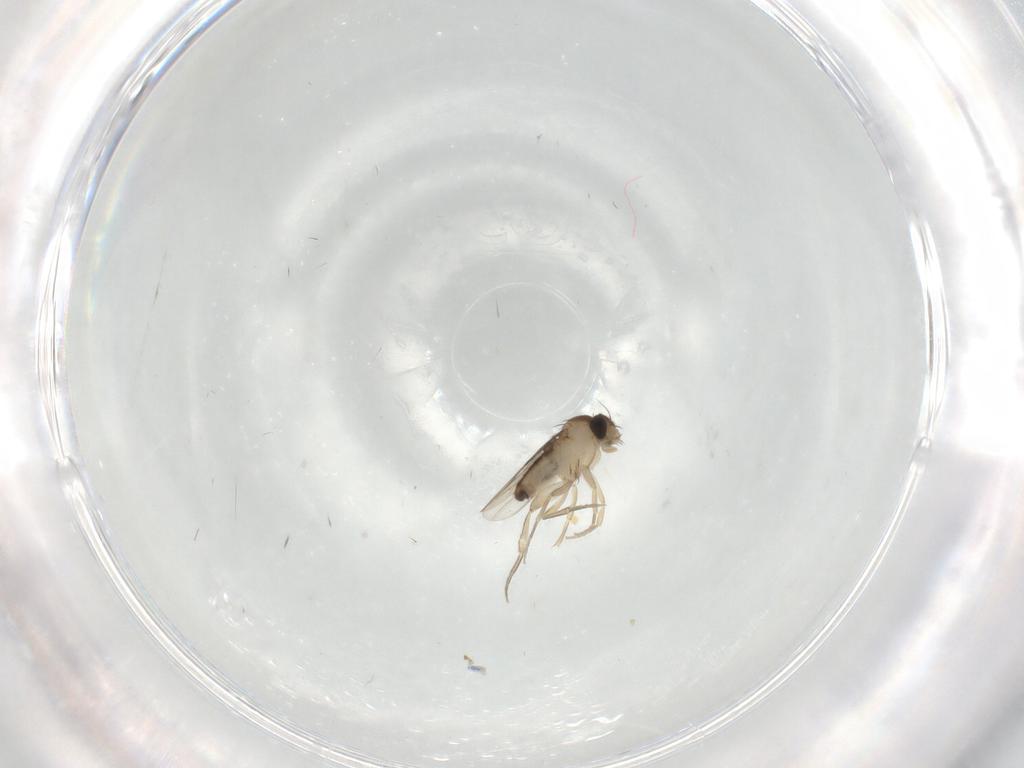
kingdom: Animalia
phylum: Arthropoda
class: Insecta
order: Diptera
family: Phoridae
